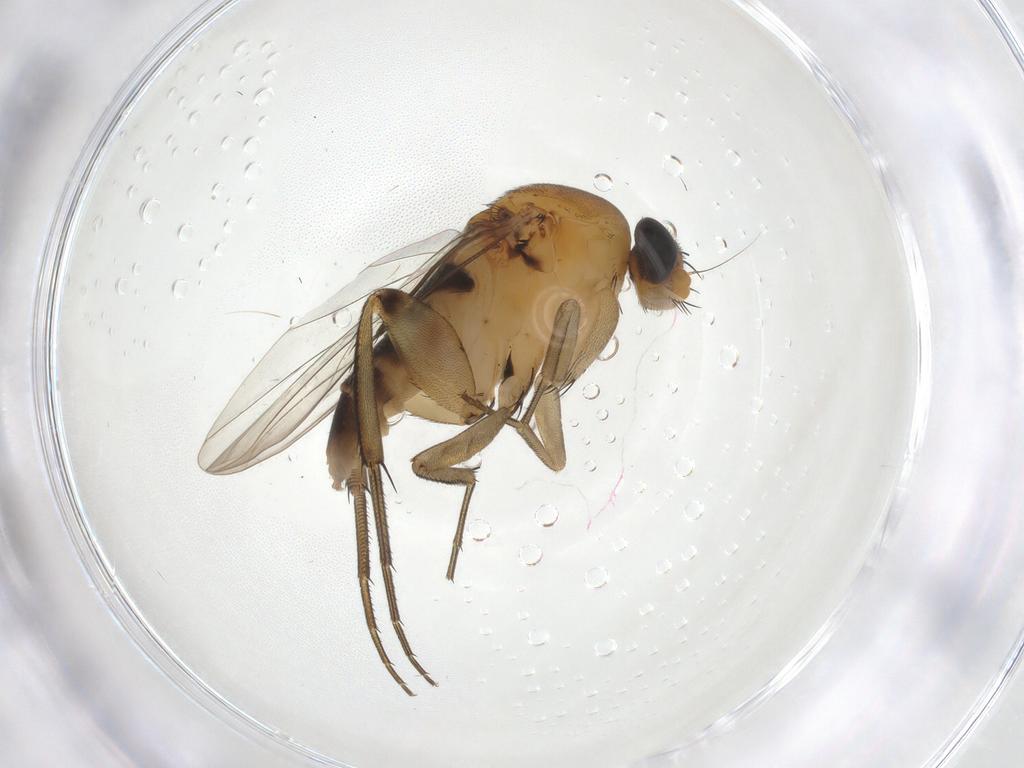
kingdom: Animalia
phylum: Arthropoda
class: Insecta
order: Diptera
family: Phoridae
